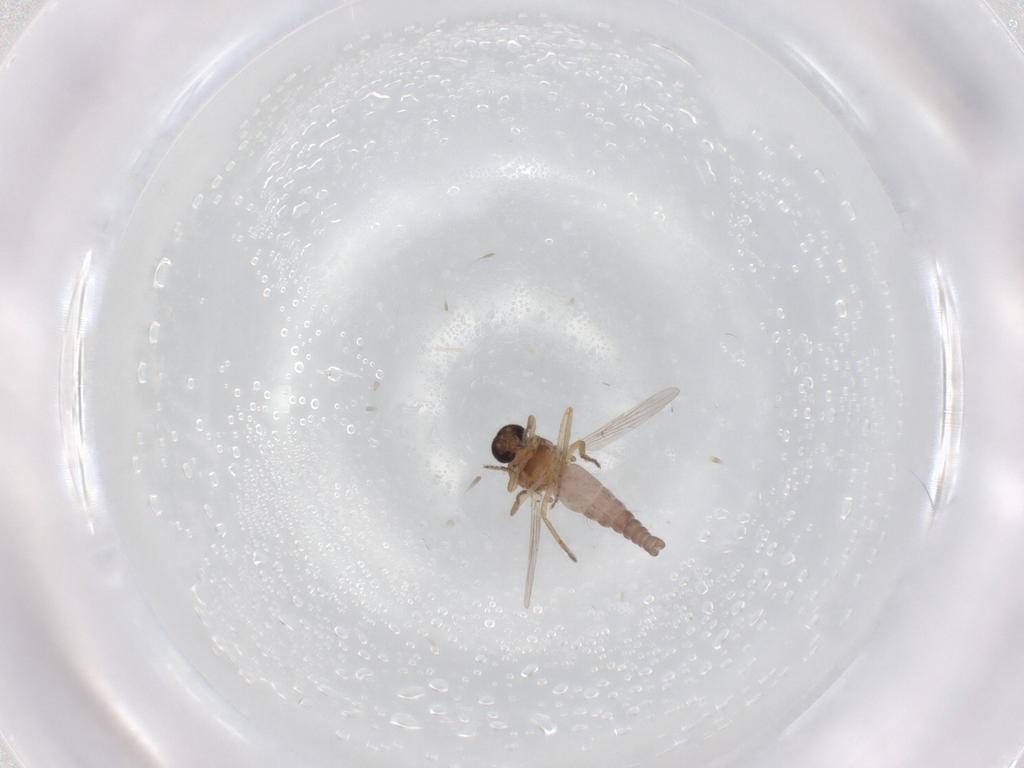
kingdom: Animalia
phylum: Arthropoda
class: Insecta
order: Diptera
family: Ceratopogonidae
